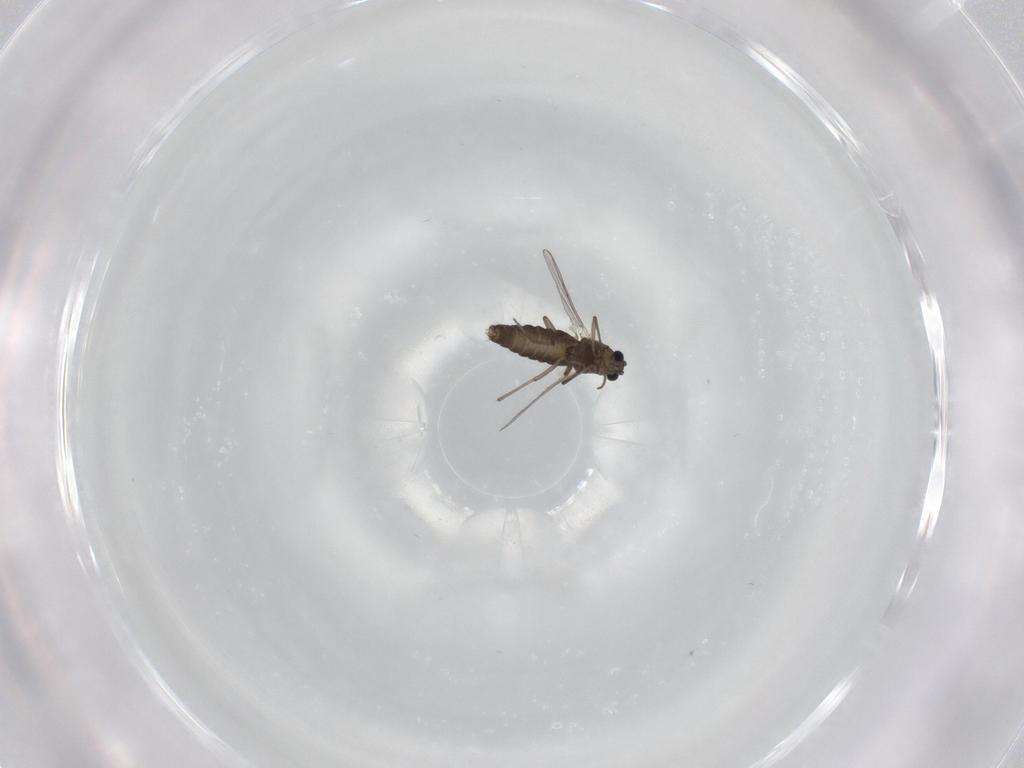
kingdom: Animalia
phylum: Arthropoda
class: Insecta
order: Diptera
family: Chironomidae
